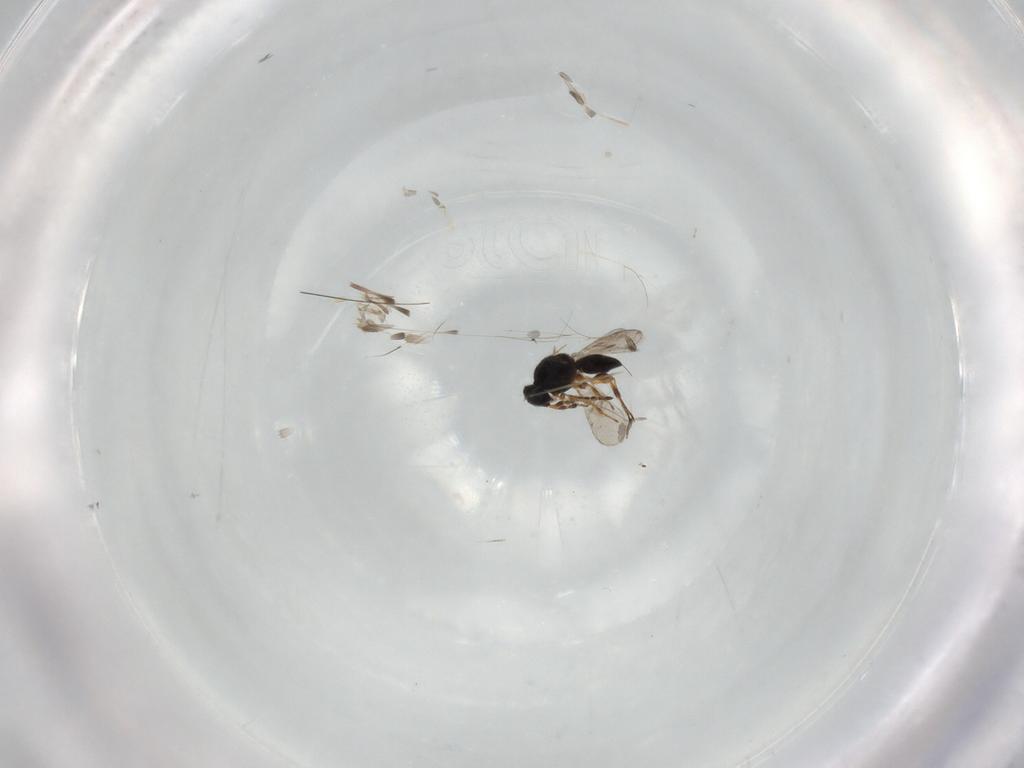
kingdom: Animalia
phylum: Arthropoda
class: Insecta
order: Hymenoptera
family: Platygastridae
